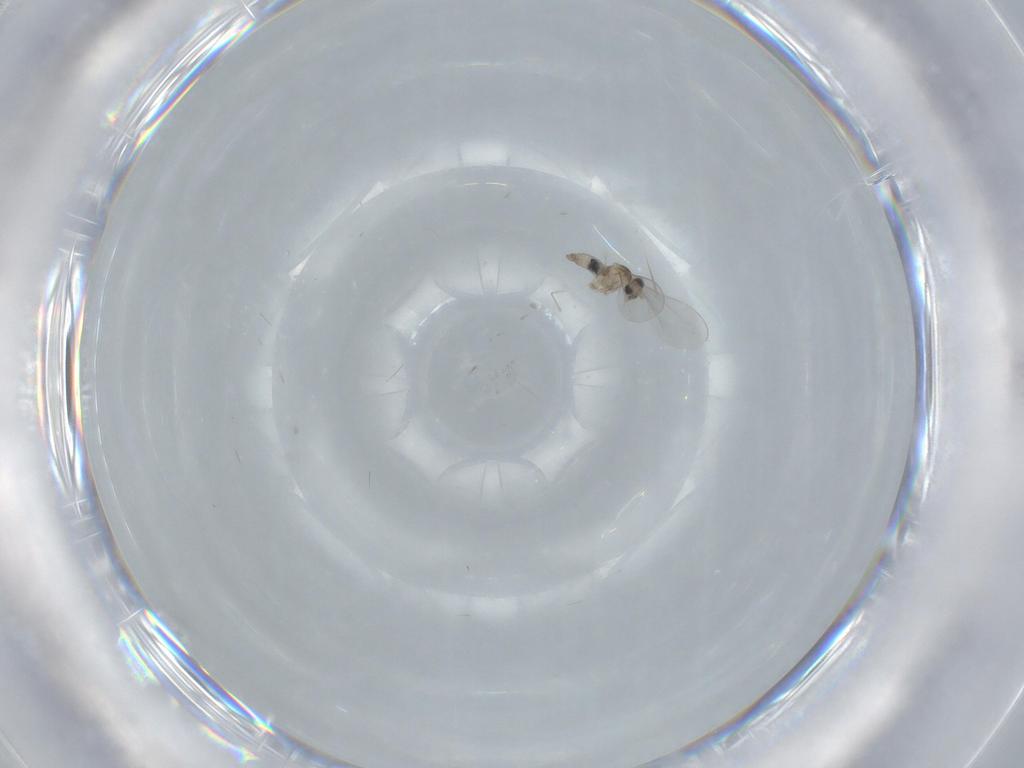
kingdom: Animalia
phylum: Arthropoda
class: Insecta
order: Diptera
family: Cecidomyiidae
